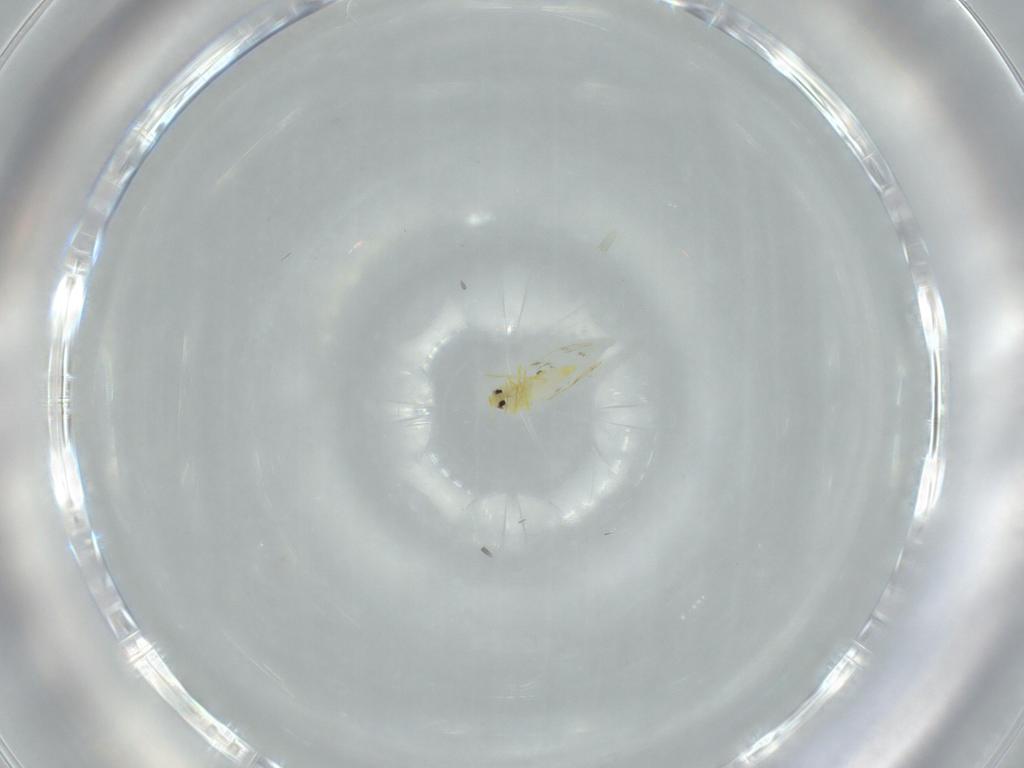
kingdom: Animalia
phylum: Arthropoda
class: Insecta
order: Hemiptera
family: Aleyrodidae
